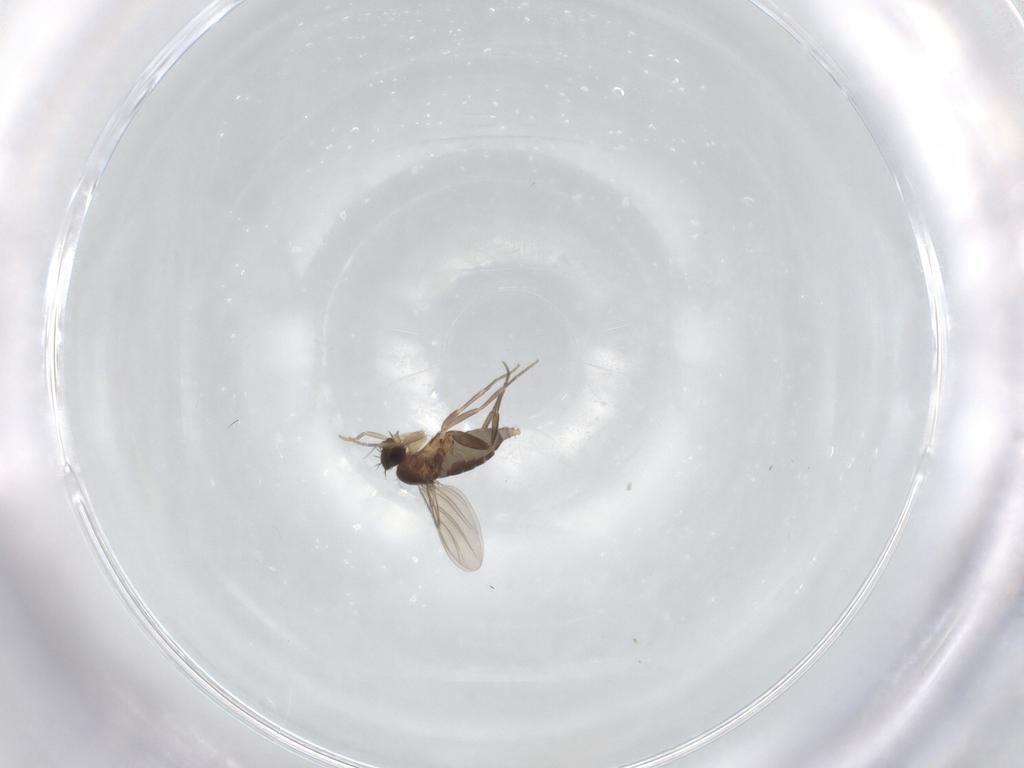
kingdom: Animalia
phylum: Arthropoda
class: Insecta
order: Diptera
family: Phoridae
